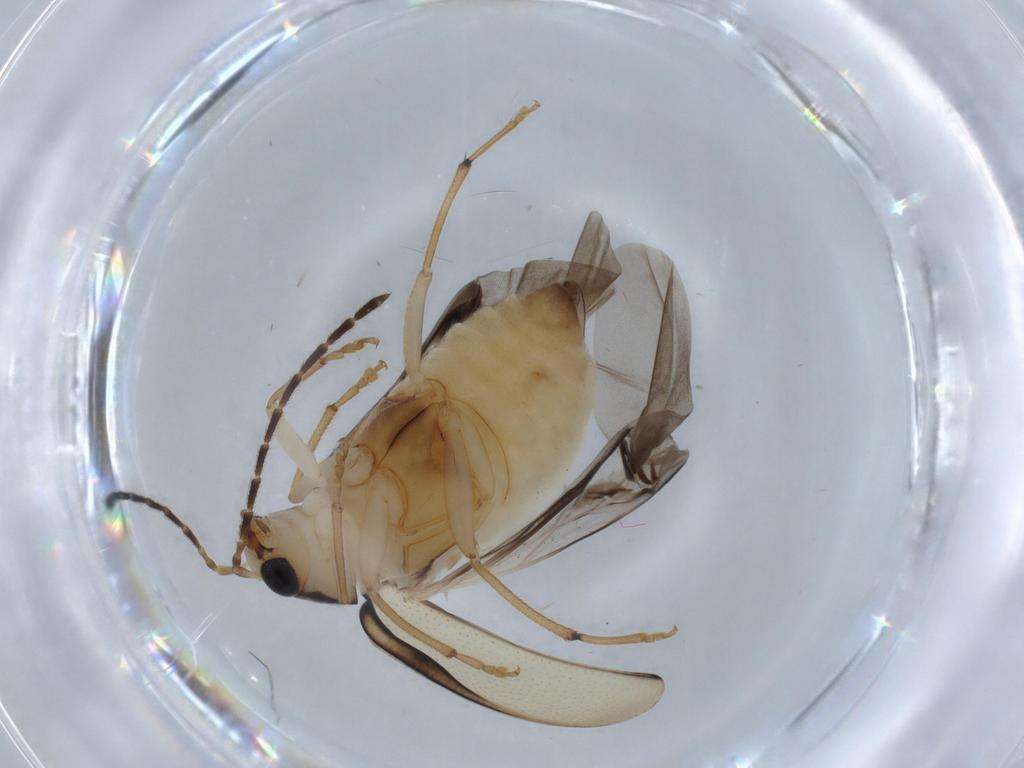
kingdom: Animalia
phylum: Arthropoda
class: Insecta
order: Coleoptera
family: Chrysomelidae
